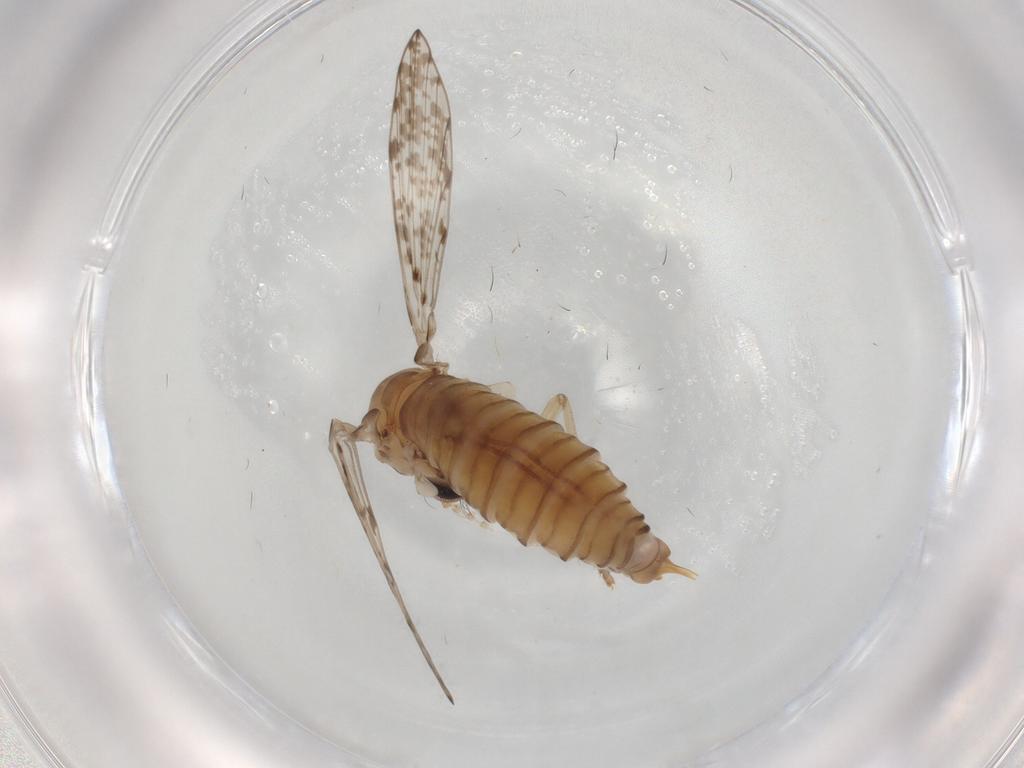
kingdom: Animalia
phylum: Arthropoda
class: Insecta
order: Diptera
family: Psychodidae
